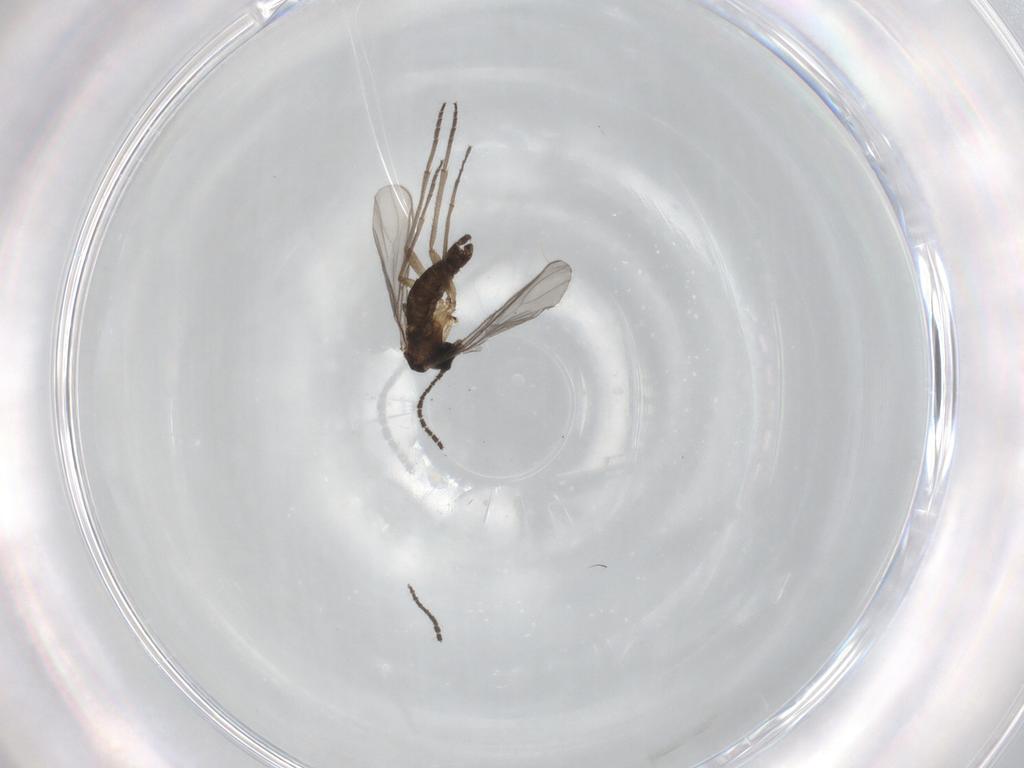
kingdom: Animalia
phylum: Arthropoda
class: Insecta
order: Diptera
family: Sciaridae
